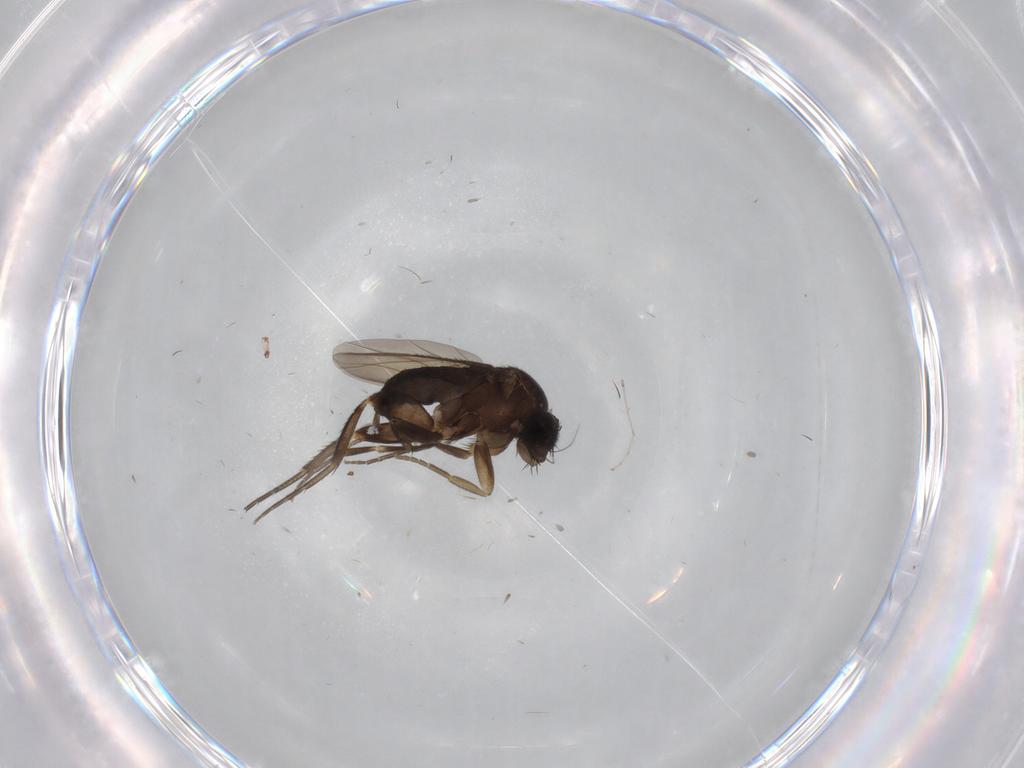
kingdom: Animalia
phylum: Arthropoda
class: Insecta
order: Diptera
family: Phoridae
